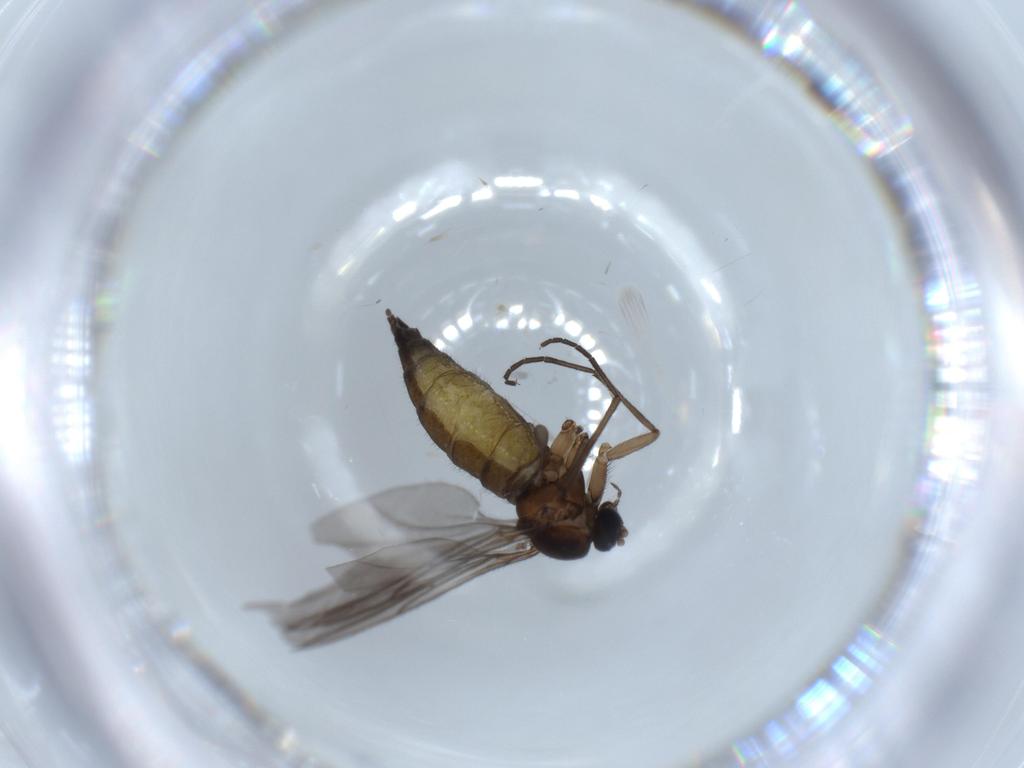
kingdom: Animalia
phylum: Arthropoda
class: Insecta
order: Diptera
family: Sciaridae
